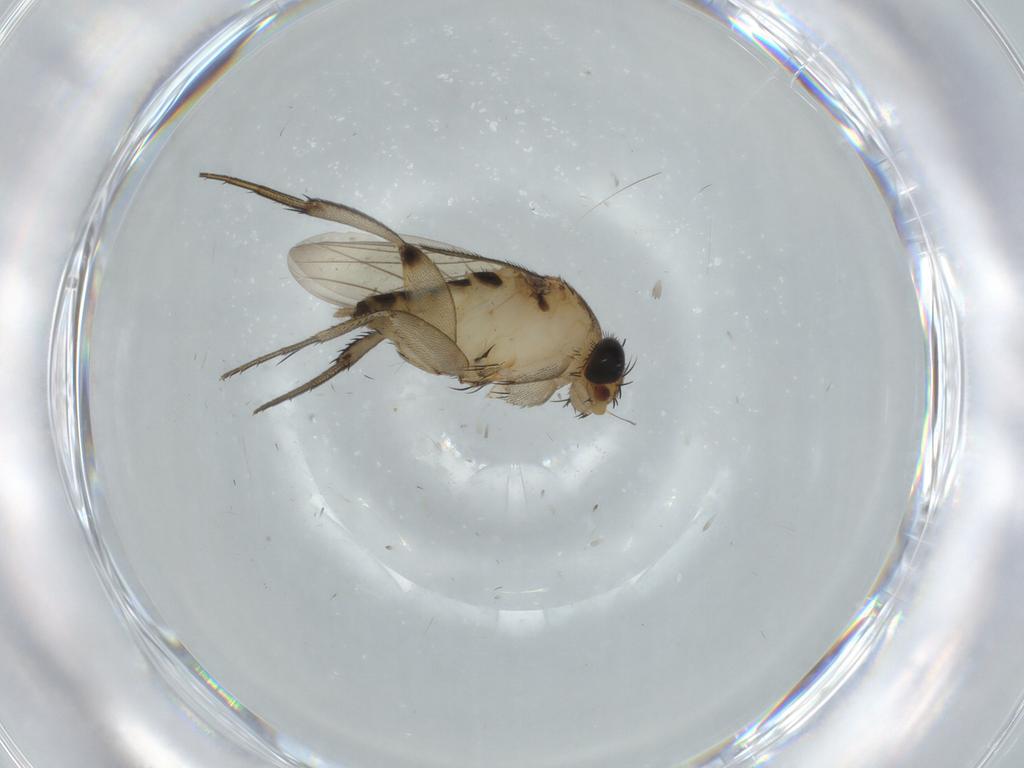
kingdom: Animalia
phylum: Arthropoda
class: Insecta
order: Diptera
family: Phoridae
